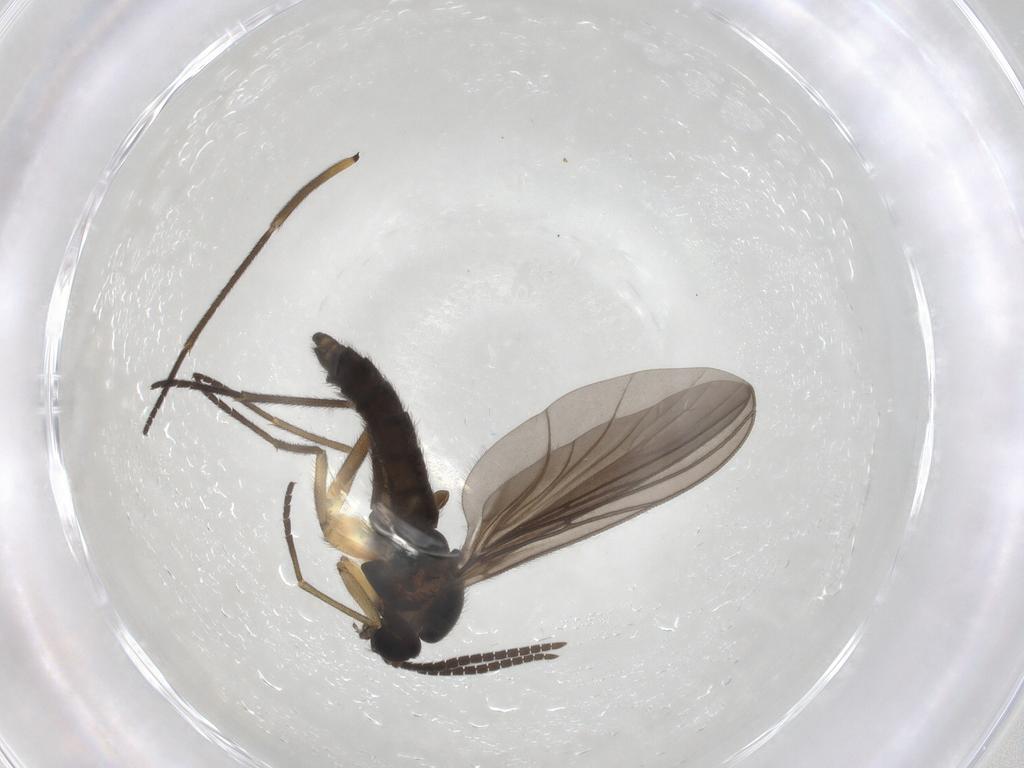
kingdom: Animalia
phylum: Arthropoda
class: Insecta
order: Diptera
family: Sciaridae
